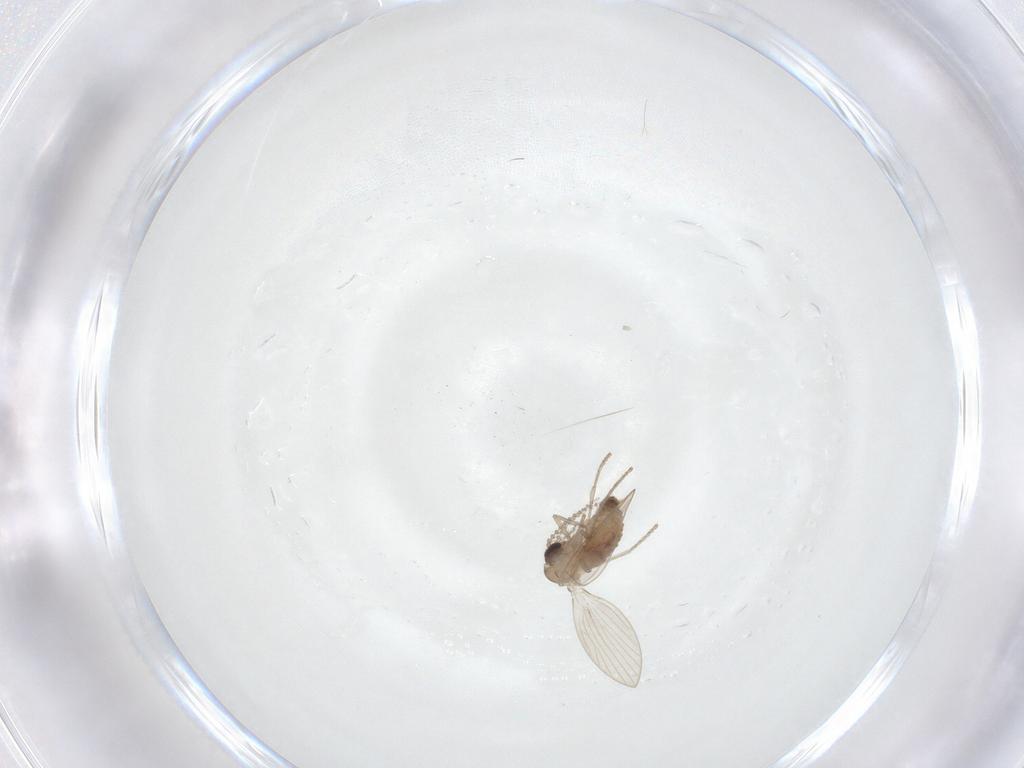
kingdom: Animalia
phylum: Arthropoda
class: Insecta
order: Diptera
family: Psychodidae
